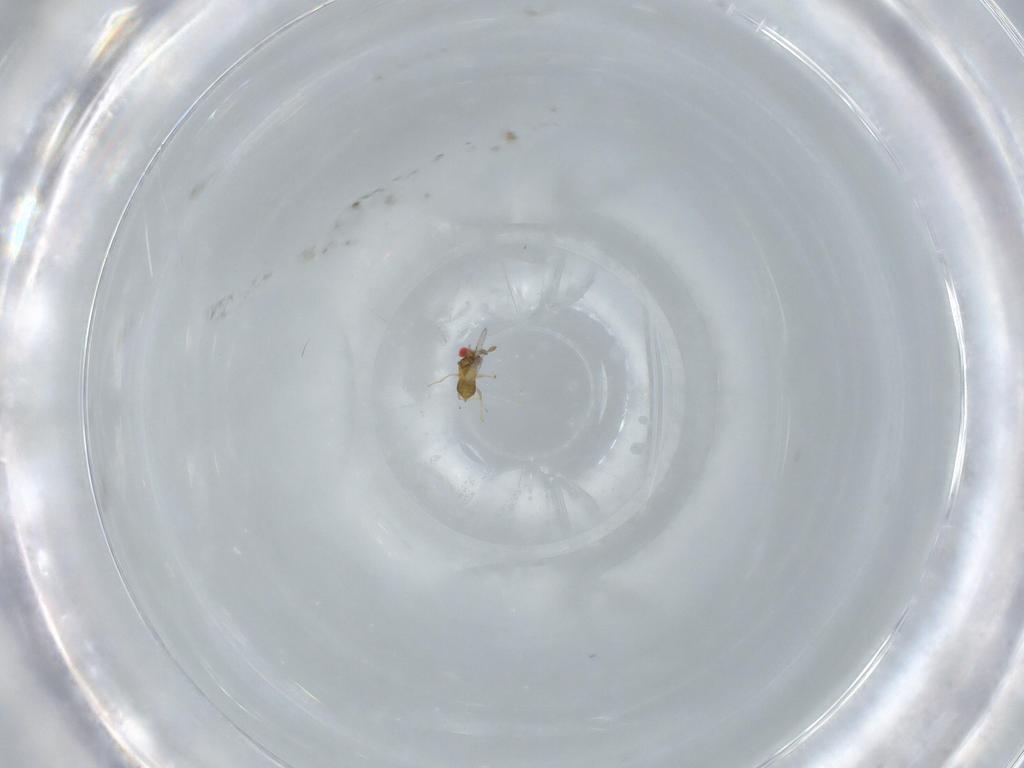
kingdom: Animalia
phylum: Arthropoda
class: Insecta
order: Hymenoptera
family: Trichogrammatidae
